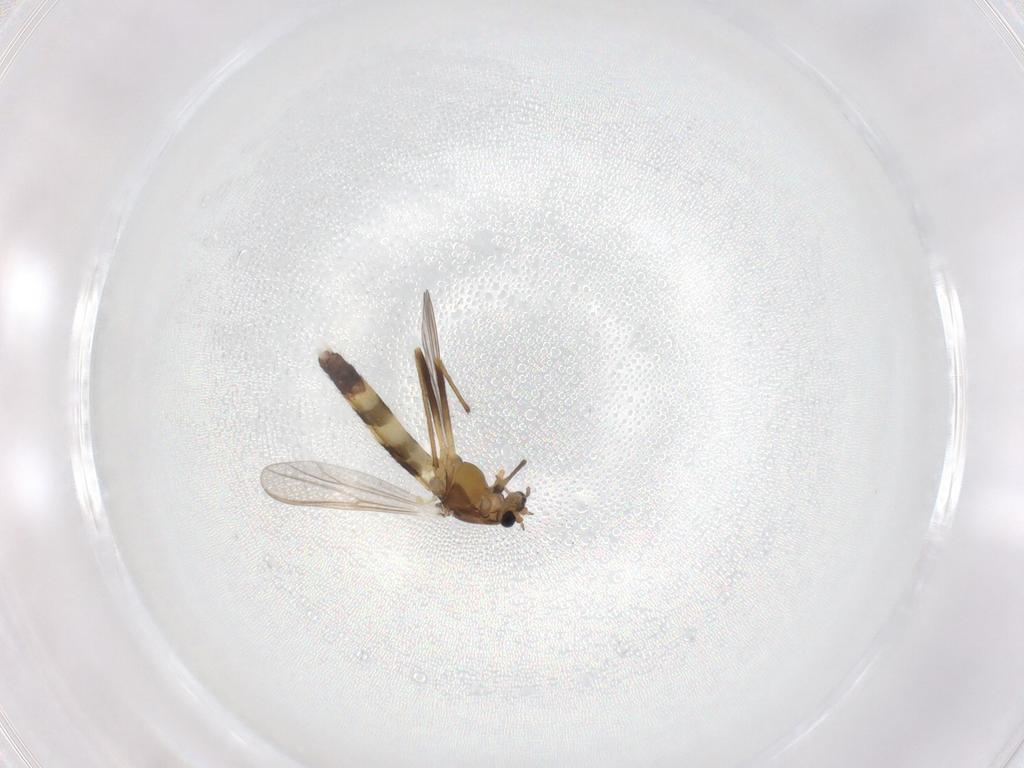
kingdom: Animalia
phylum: Arthropoda
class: Insecta
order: Diptera
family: Chironomidae
